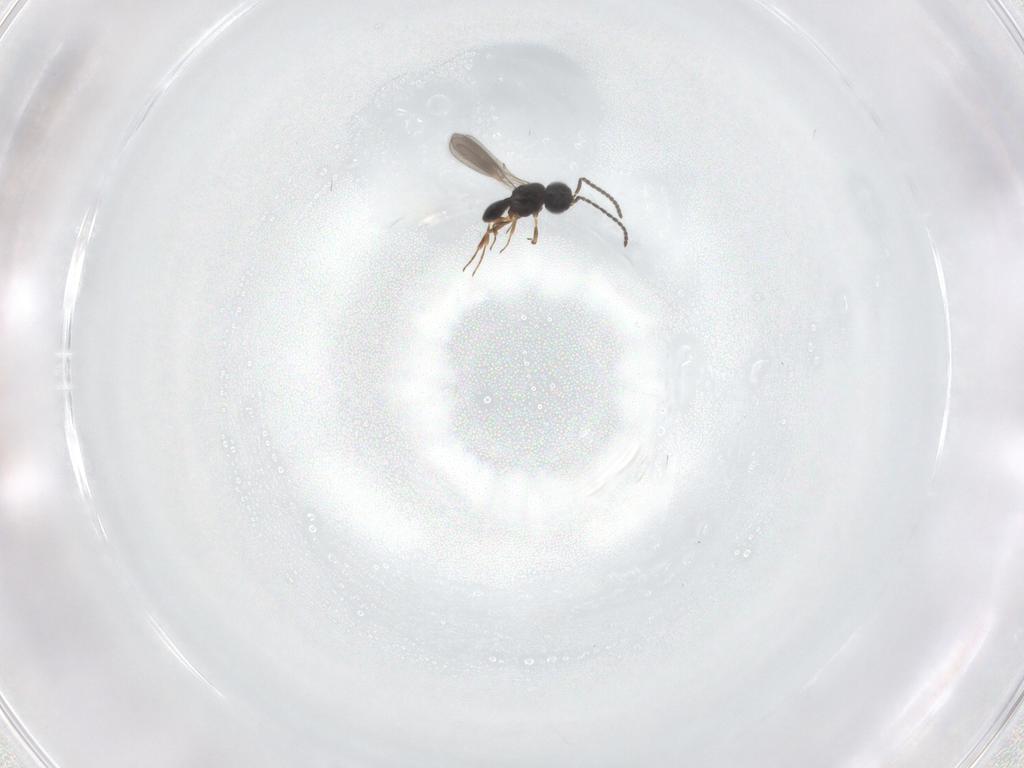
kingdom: Animalia
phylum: Arthropoda
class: Insecta
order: Hymenoptera
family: Scelionidae
